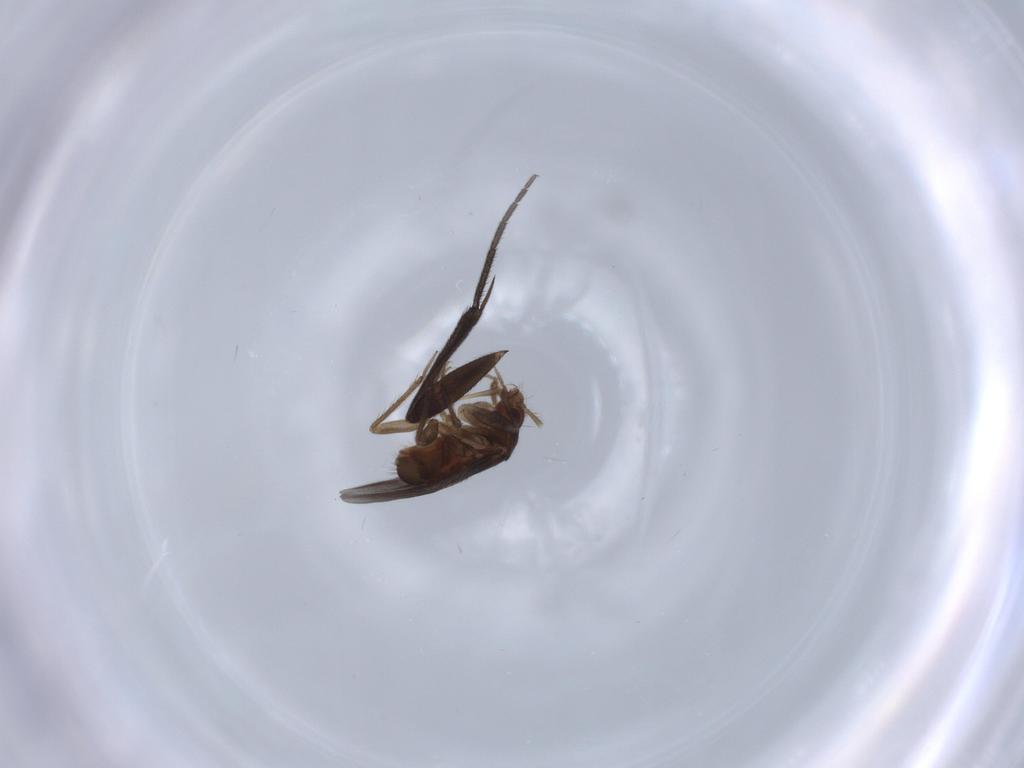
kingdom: Animalia
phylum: Arthropoda
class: Insecta
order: Hemiptera
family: Ceratocombidae
